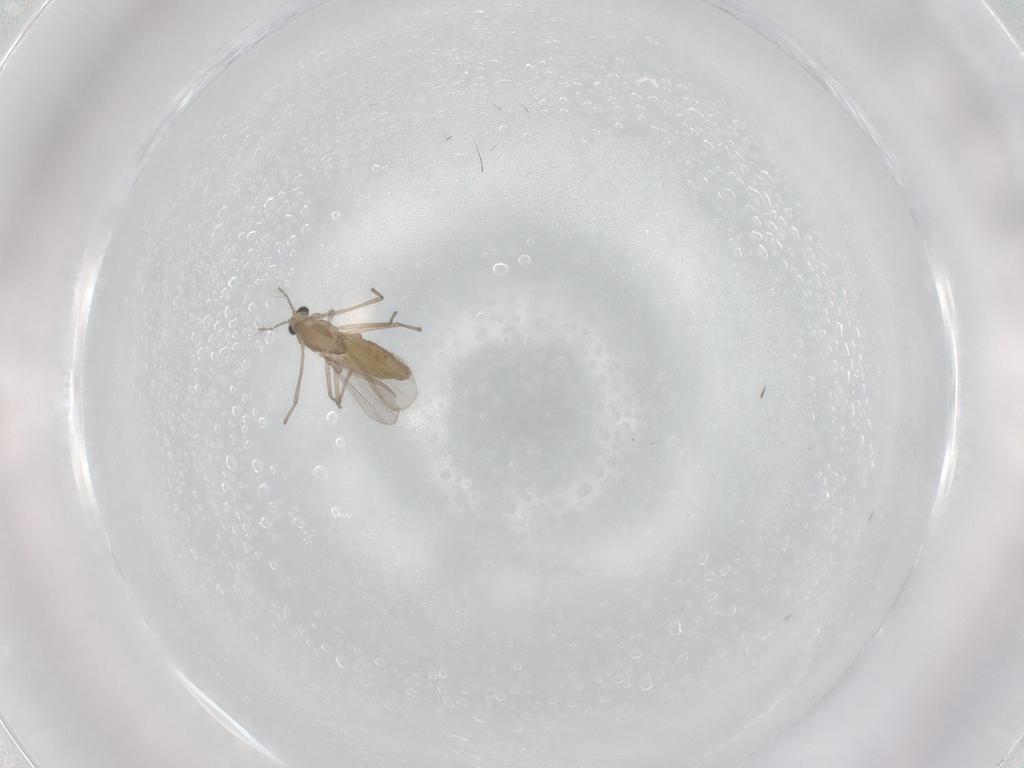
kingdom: Animalia
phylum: Arthropoda
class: Insecta
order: Diptera
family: Chironomidae
